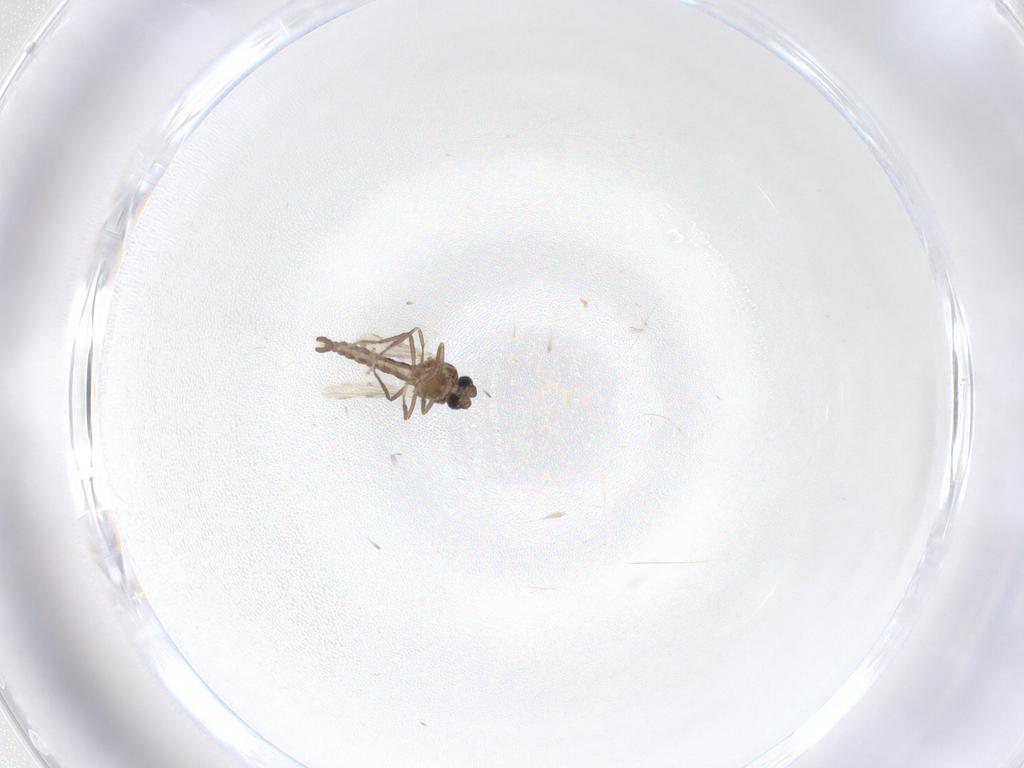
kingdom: Animalia
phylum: Arthropoda
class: Insecta
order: Diptera
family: Ceratopogonidae
